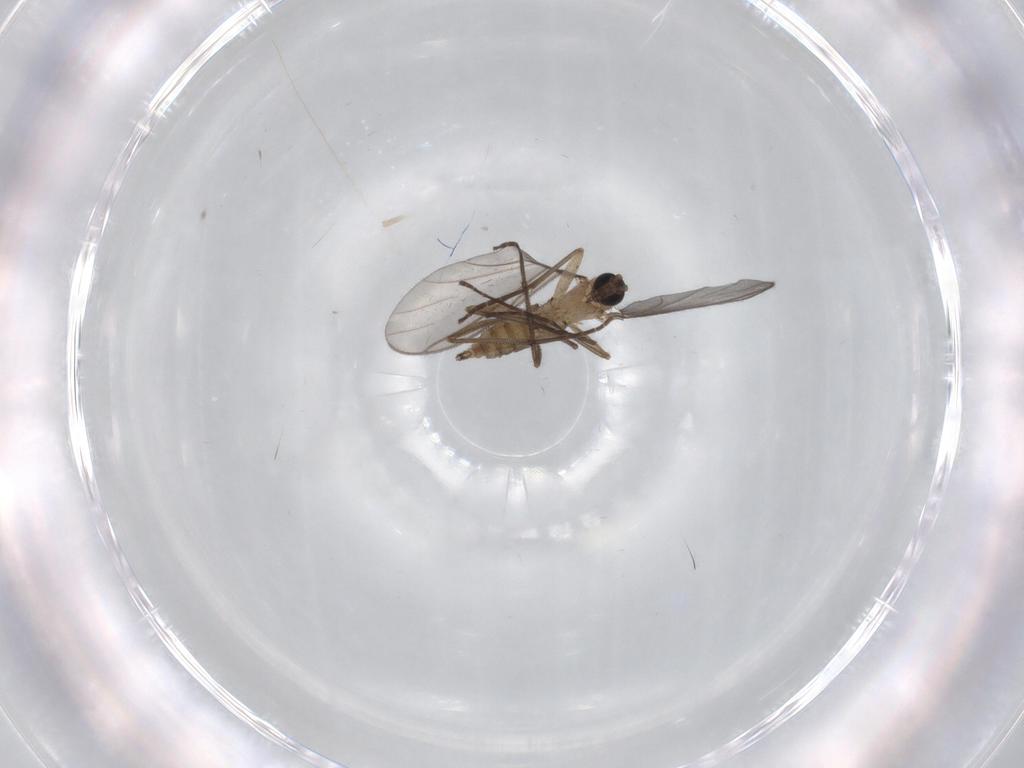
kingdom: Animalia
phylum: Arthropoda
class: Insecta
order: Diptera
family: Sciaridae
